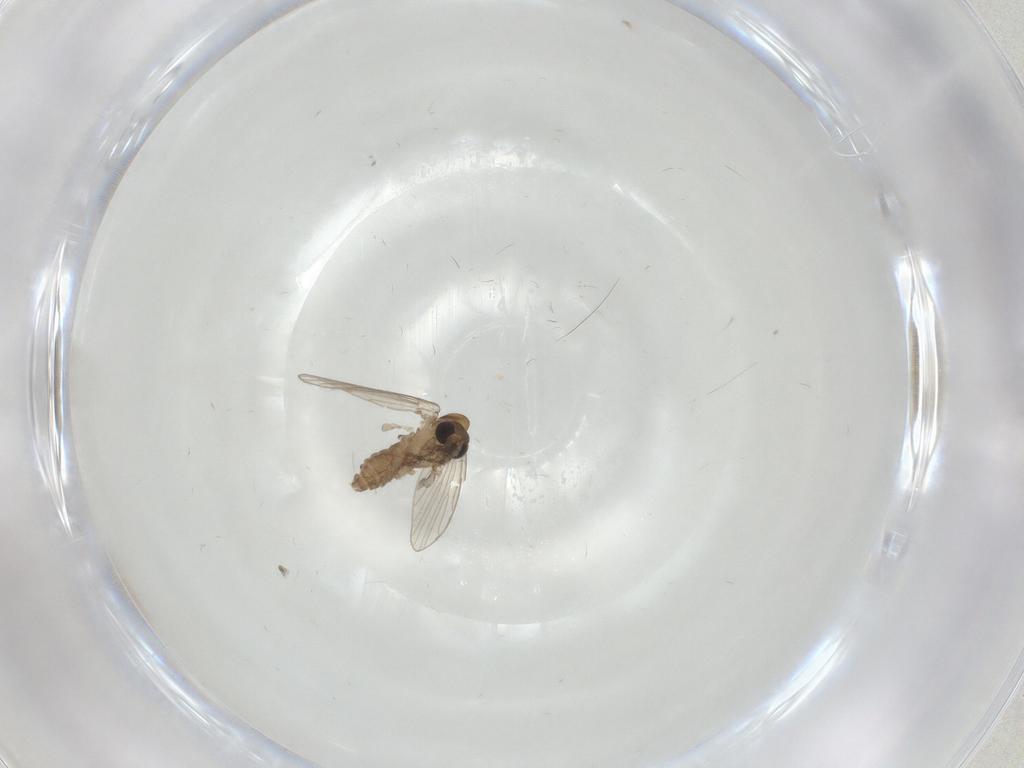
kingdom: Animalia
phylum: Arthropoda
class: Insecta
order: Diptera
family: Psychodidae
